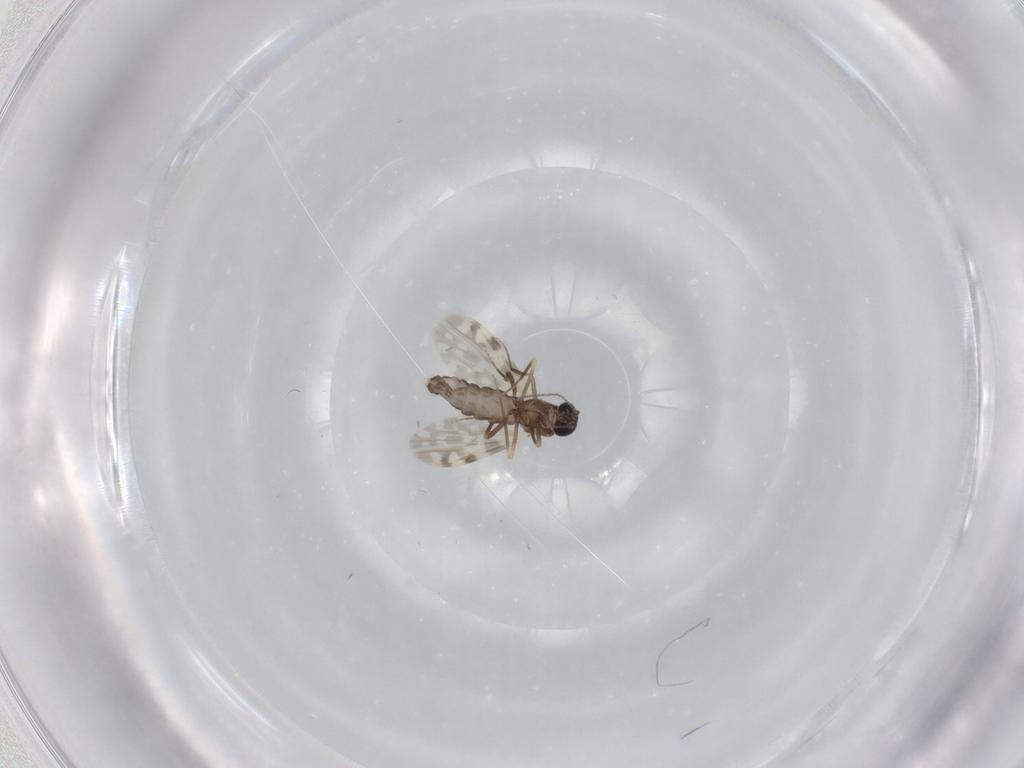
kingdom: Animalia
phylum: Arthropoda
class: Insecta
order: Diptera
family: Ceratopogonidae
